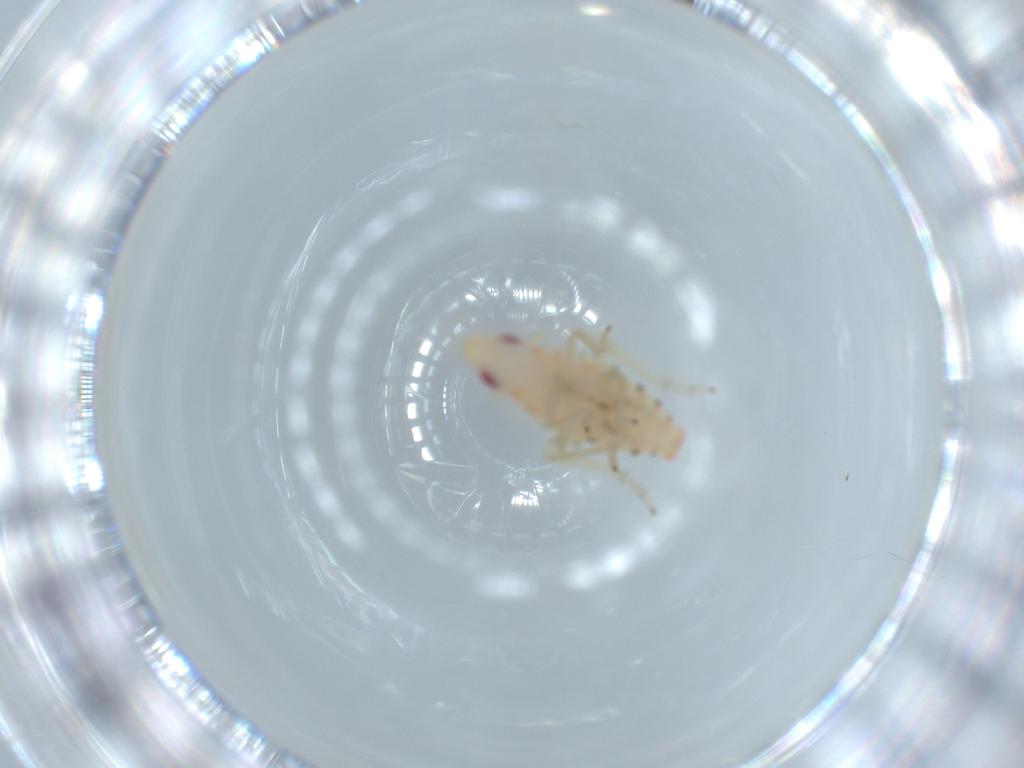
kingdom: Animalia
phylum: Arthropoda
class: Insecta
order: Hemiptera
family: Tropiduchidae
